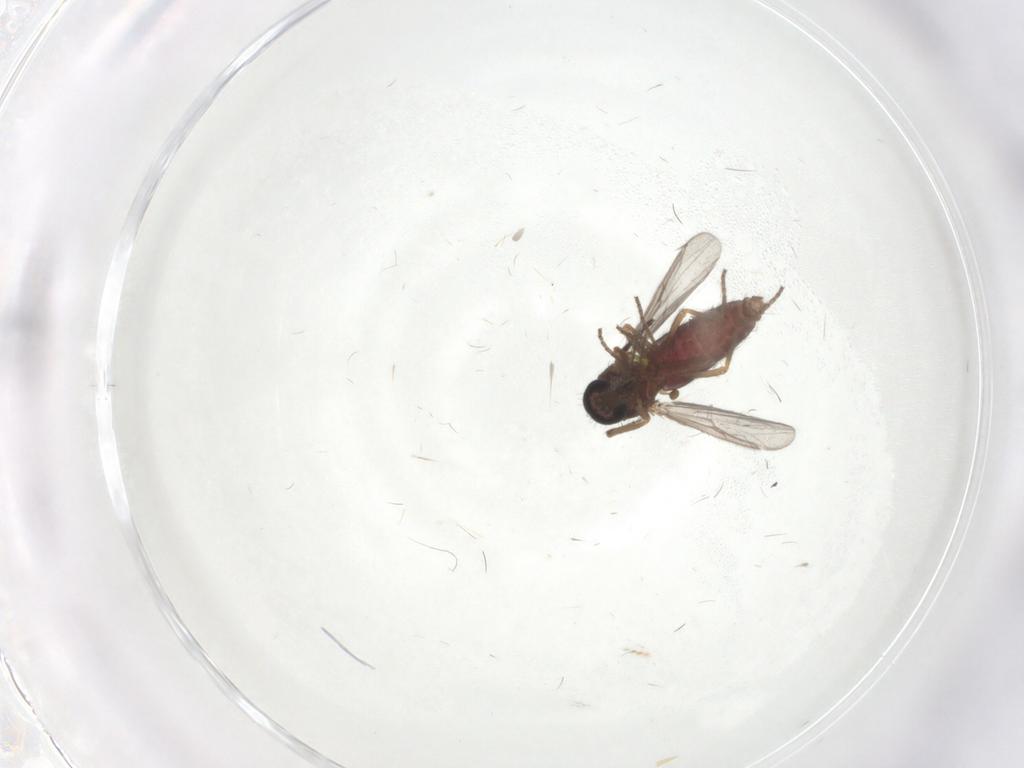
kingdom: Animalia
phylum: Arthropoda
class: Insecta
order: Diptera
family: Ceratopogonidae
